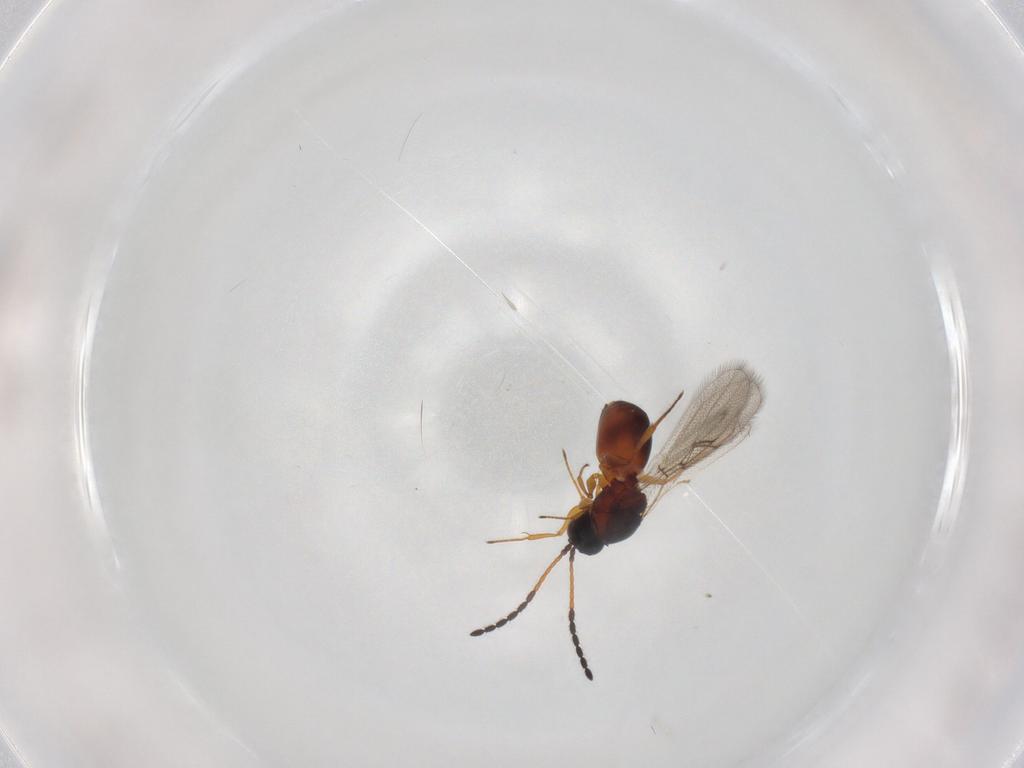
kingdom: Animalia
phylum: Arthropoda
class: Insecta
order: Hymenoptera
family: Figitidae
